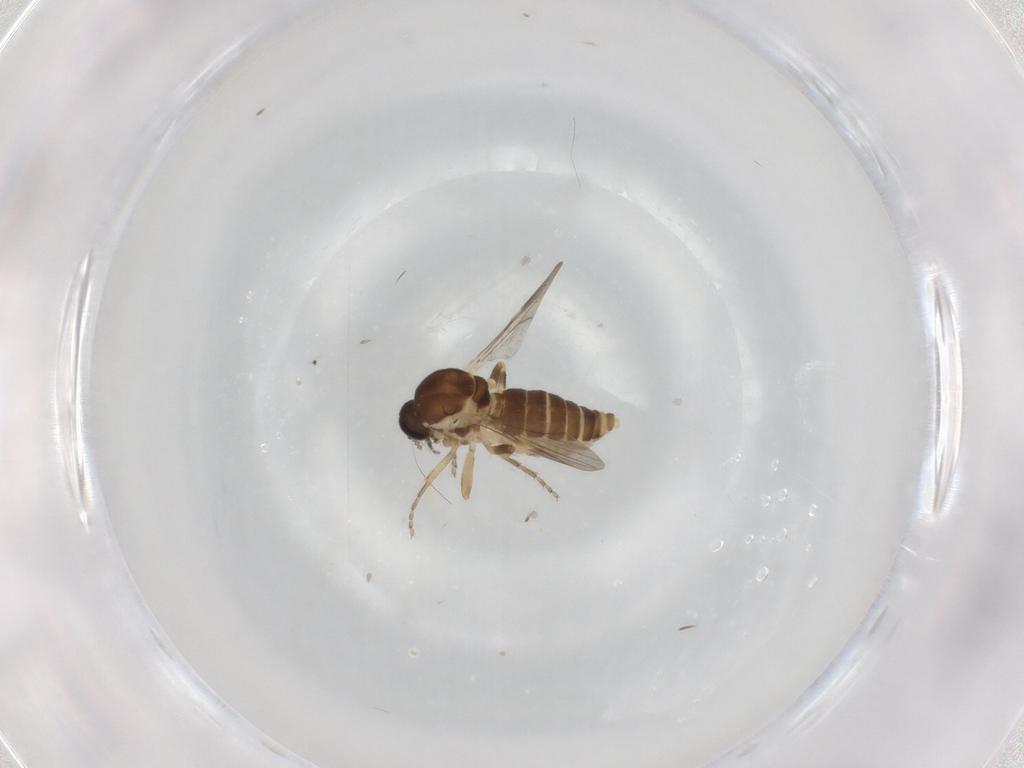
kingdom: Animalia
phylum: Arthropoda
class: Insecta
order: Diptera
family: Ceratopogonidae
